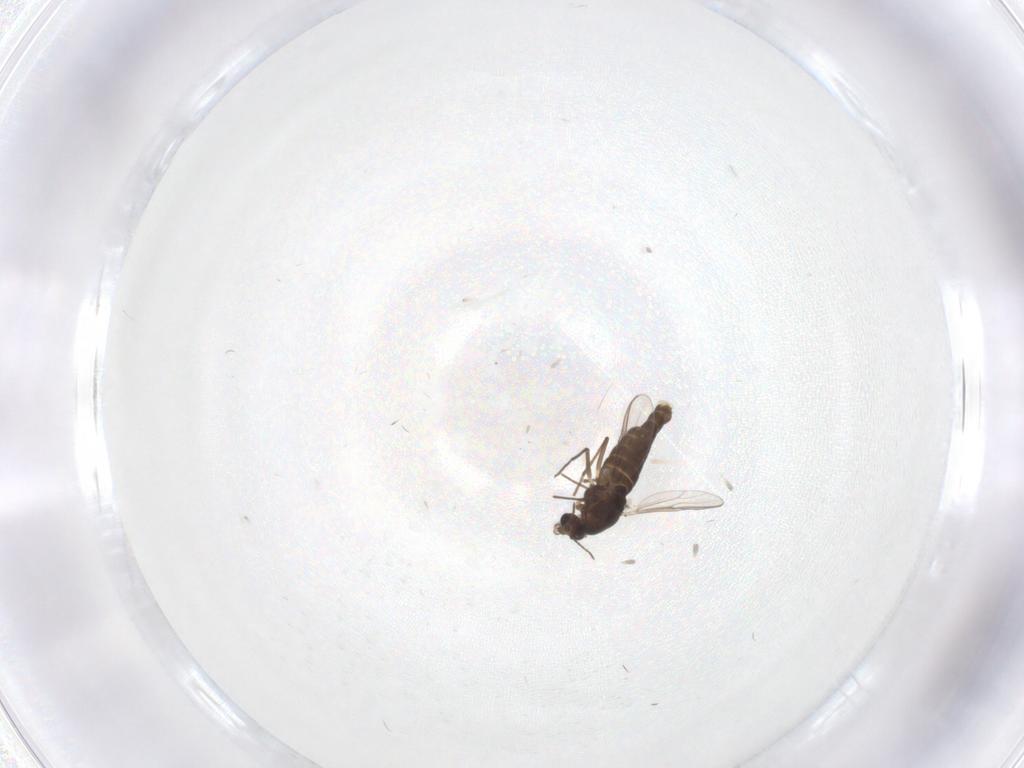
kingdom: Animalia
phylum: Arthropoda
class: Insecta
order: Diptera
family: Chironomidae
